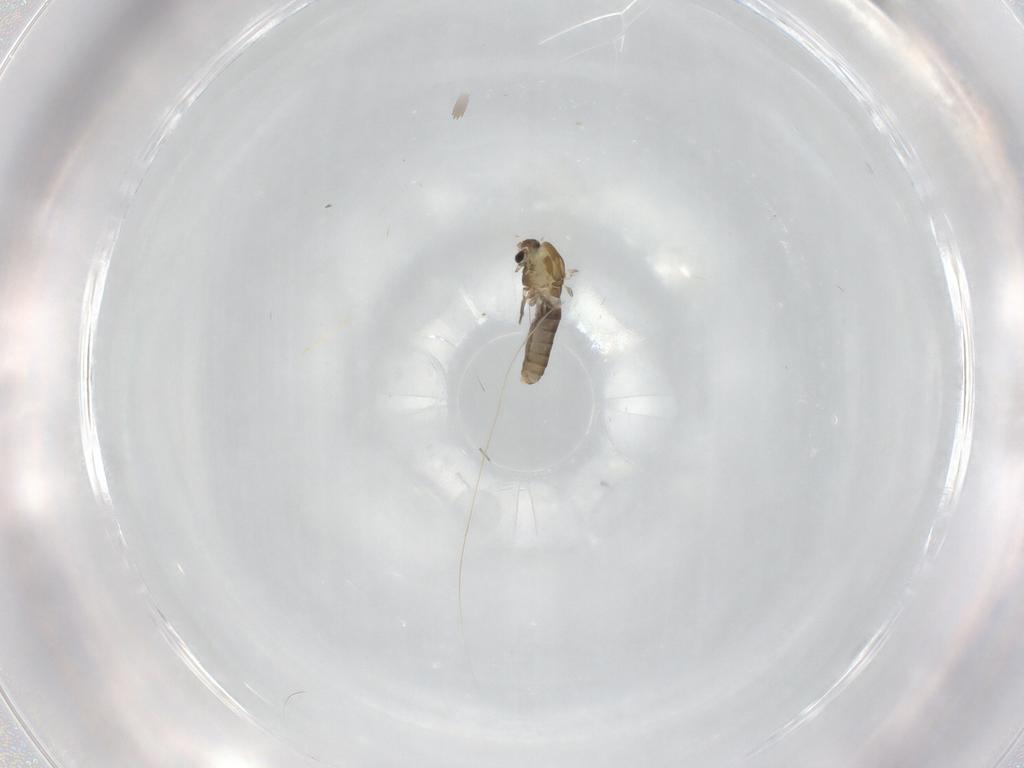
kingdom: Animalia
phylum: Arthropoda
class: Insecta
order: Diptera
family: Chironomidae
